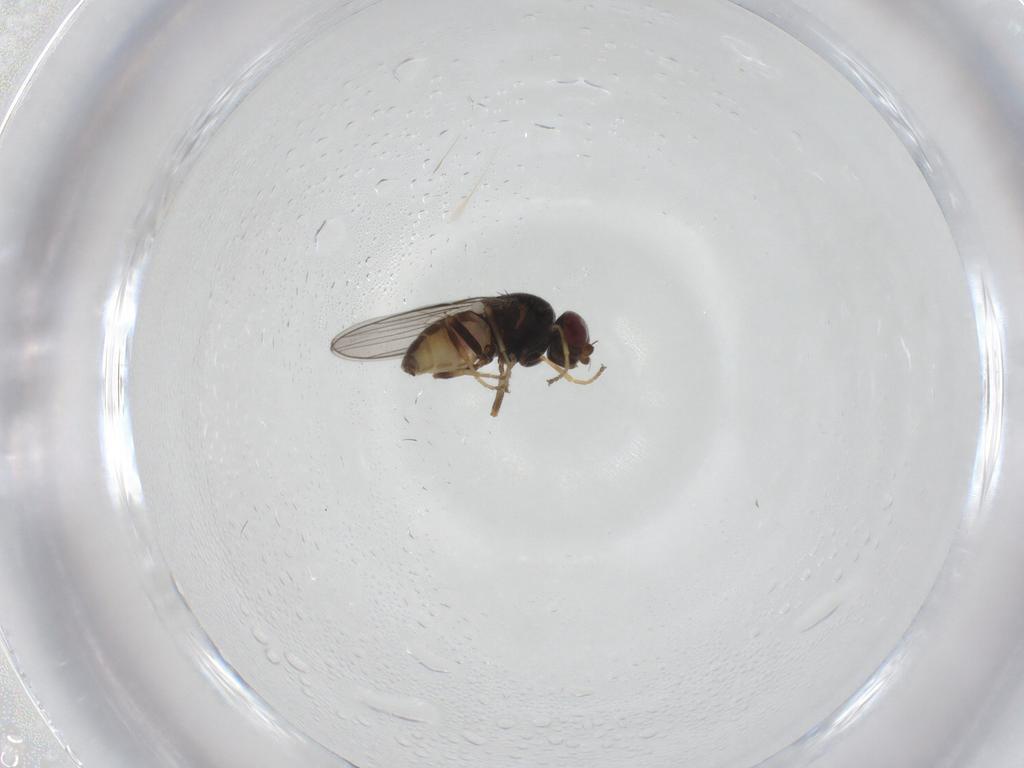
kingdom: Animalia
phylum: Arthropoda
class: Insecta
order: Diptera
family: Chloropidae
